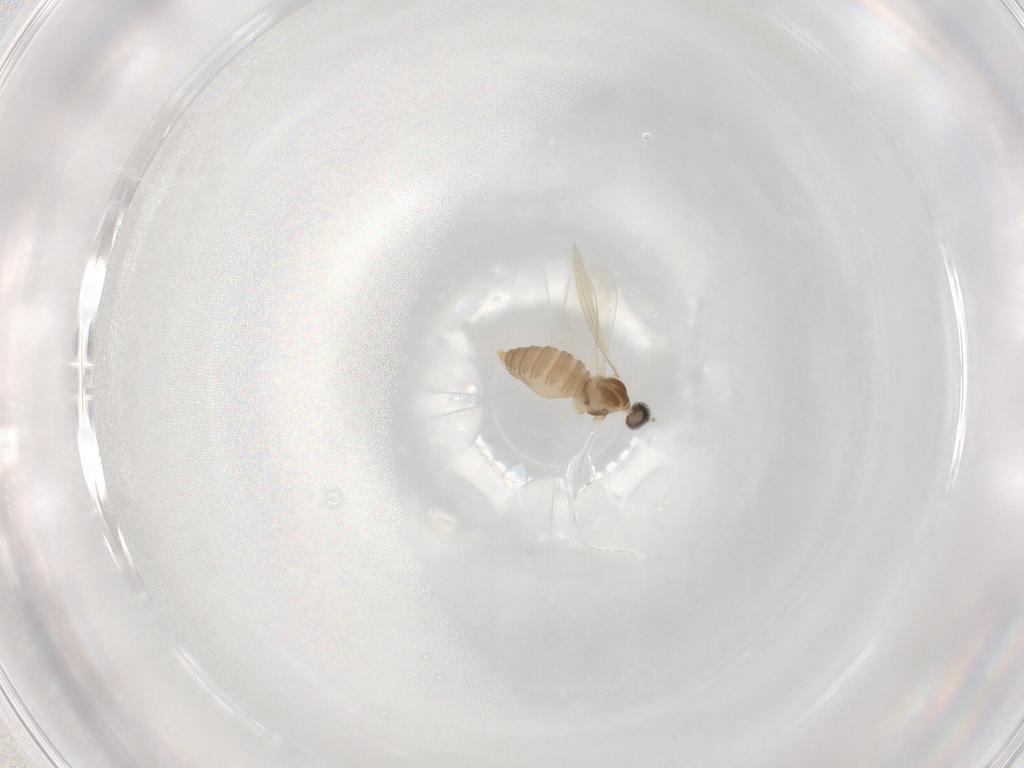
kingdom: Animalia
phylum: Arthropoda
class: Insecta
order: Diptera
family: Cecidomyiidae
